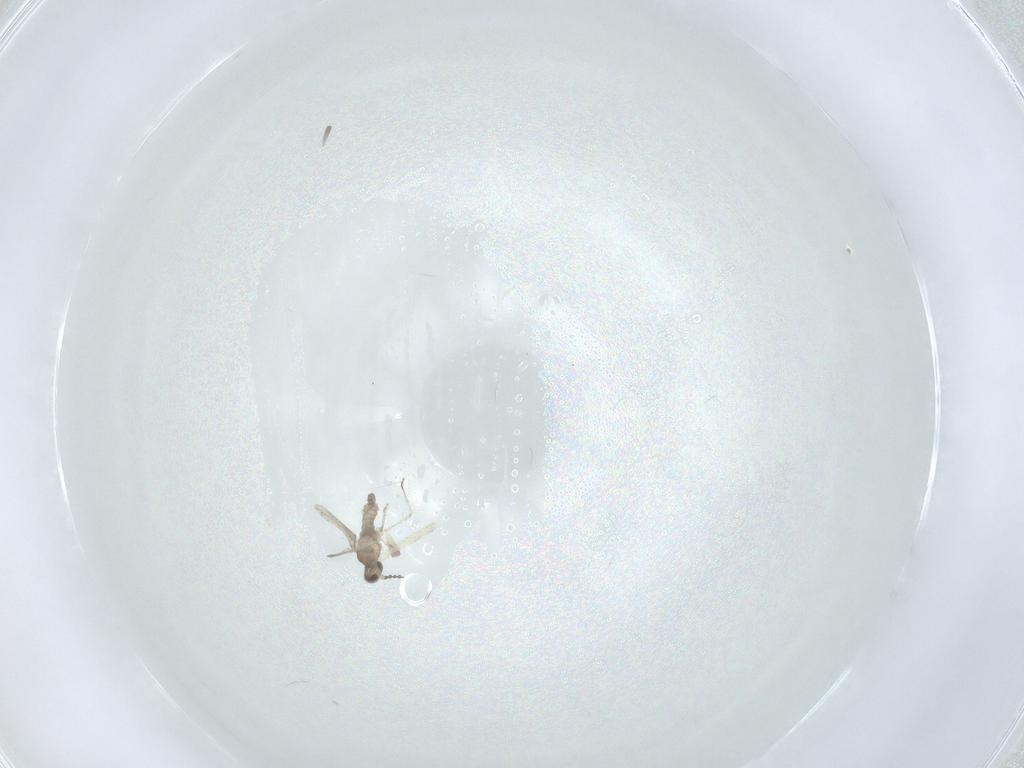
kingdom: Animalia
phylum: Arthropoda
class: Insecta
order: Diptera
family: Cecidomyiidae
